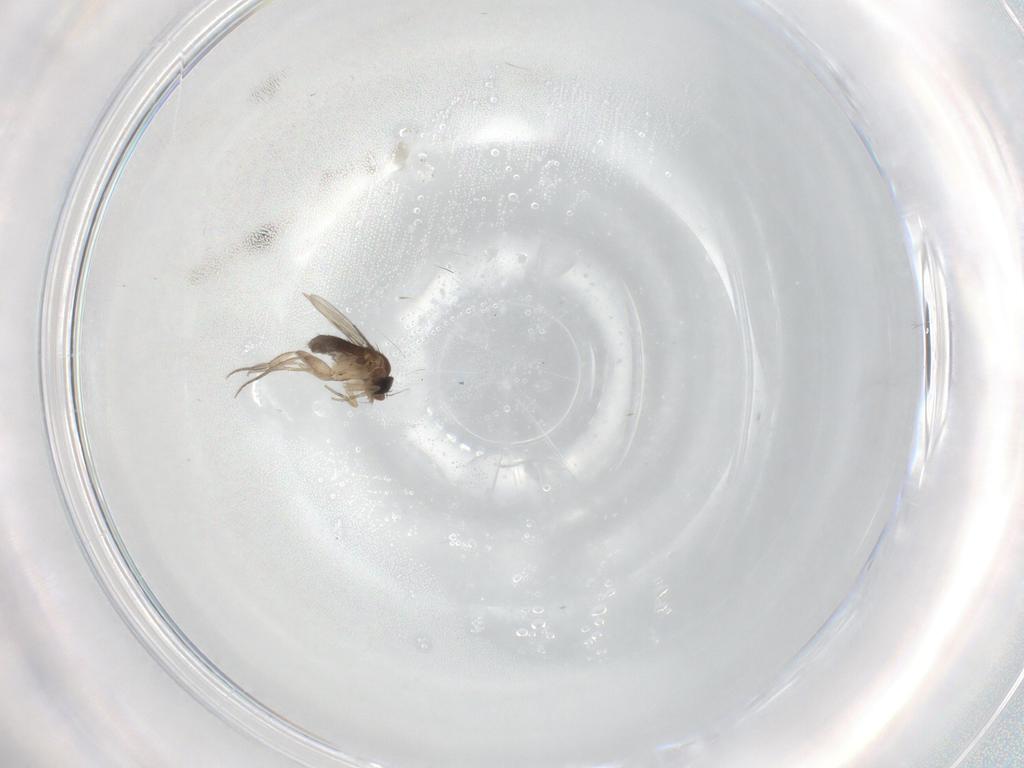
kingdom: Animalia
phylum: Arthropoda
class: Insecta
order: Diptera
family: Phoridae
